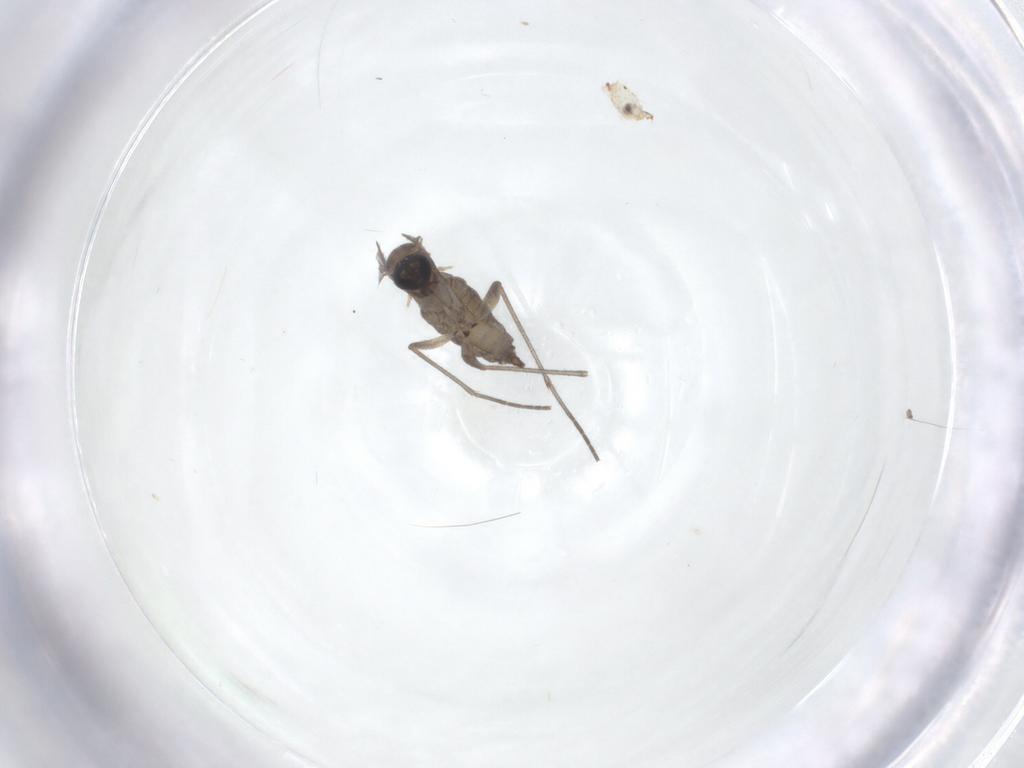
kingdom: Animalia
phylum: Arthropoda
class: Insecta
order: Diptera
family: Sciaridae
